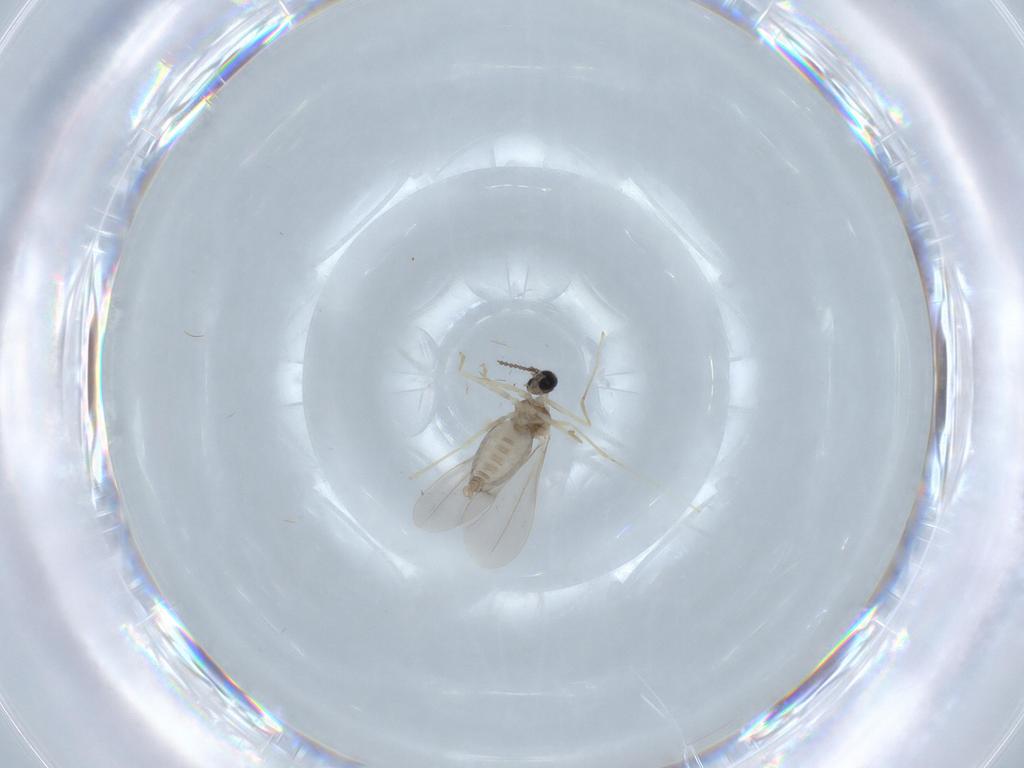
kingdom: Animalia
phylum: Arthropoda
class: Insecta
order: Diptera
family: Cecidomyiidae
